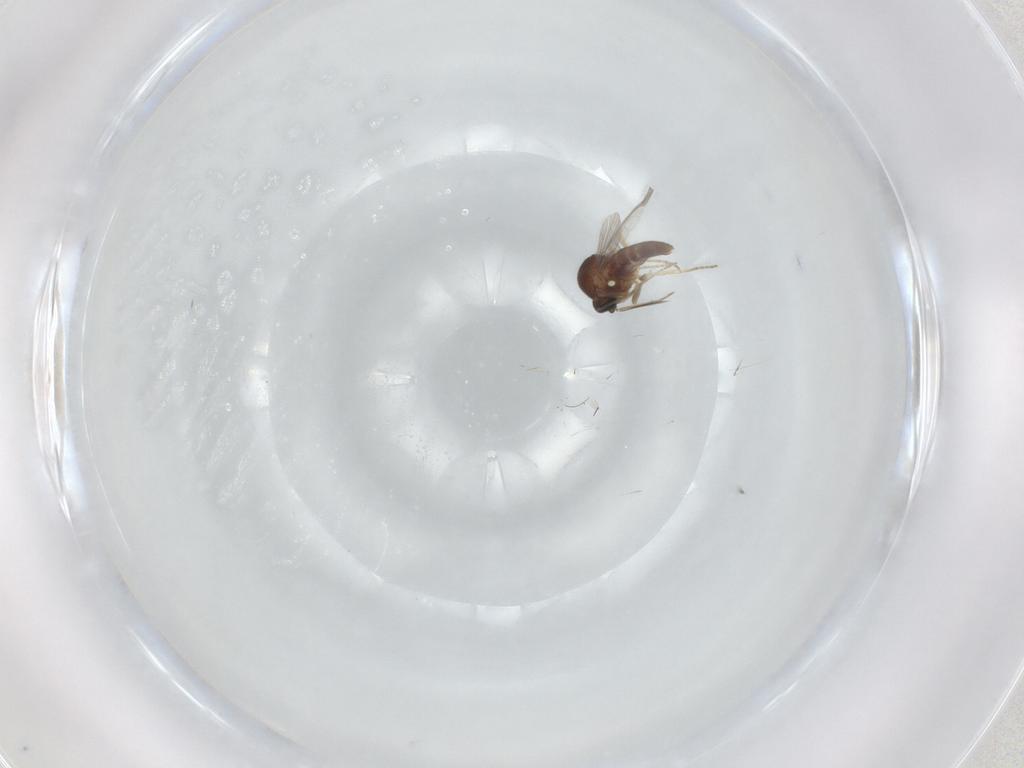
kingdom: Animalia
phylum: Arthropoda
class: Insecta
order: Diptera
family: Ceratopogonidae
